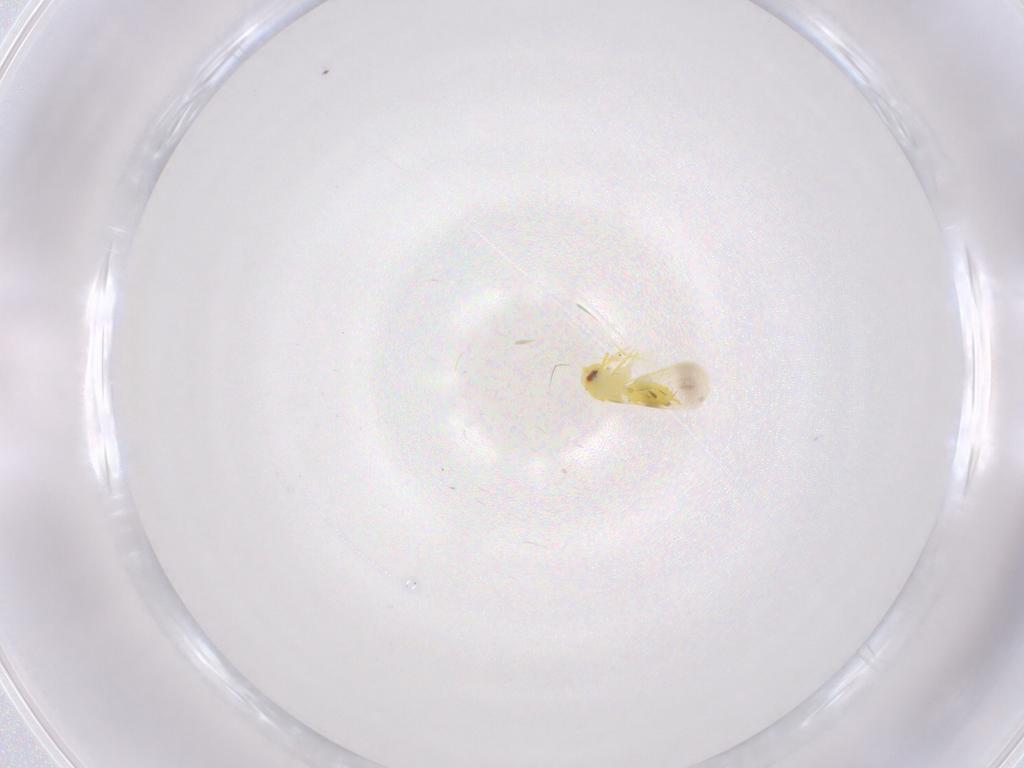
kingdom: Animalia
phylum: Arthropoda
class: Insecta
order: Hemiptera
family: Aleyrodidae
